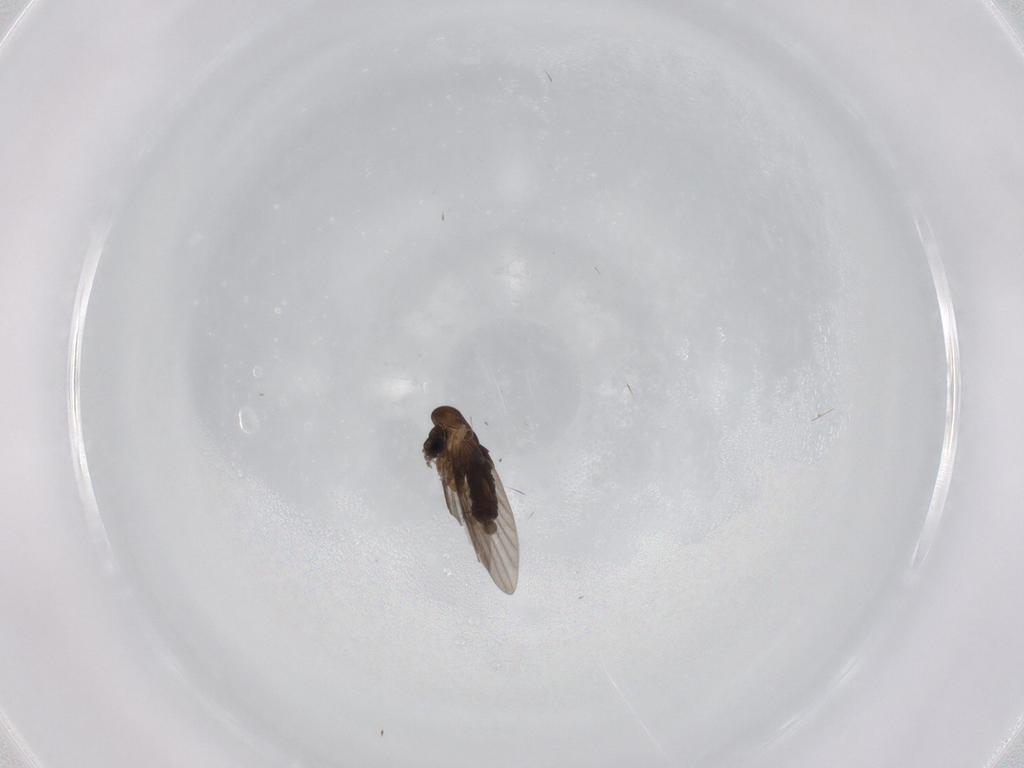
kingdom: Animalia
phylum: Arthropoda
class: Insecta
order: Diptera
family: Psychodidae
